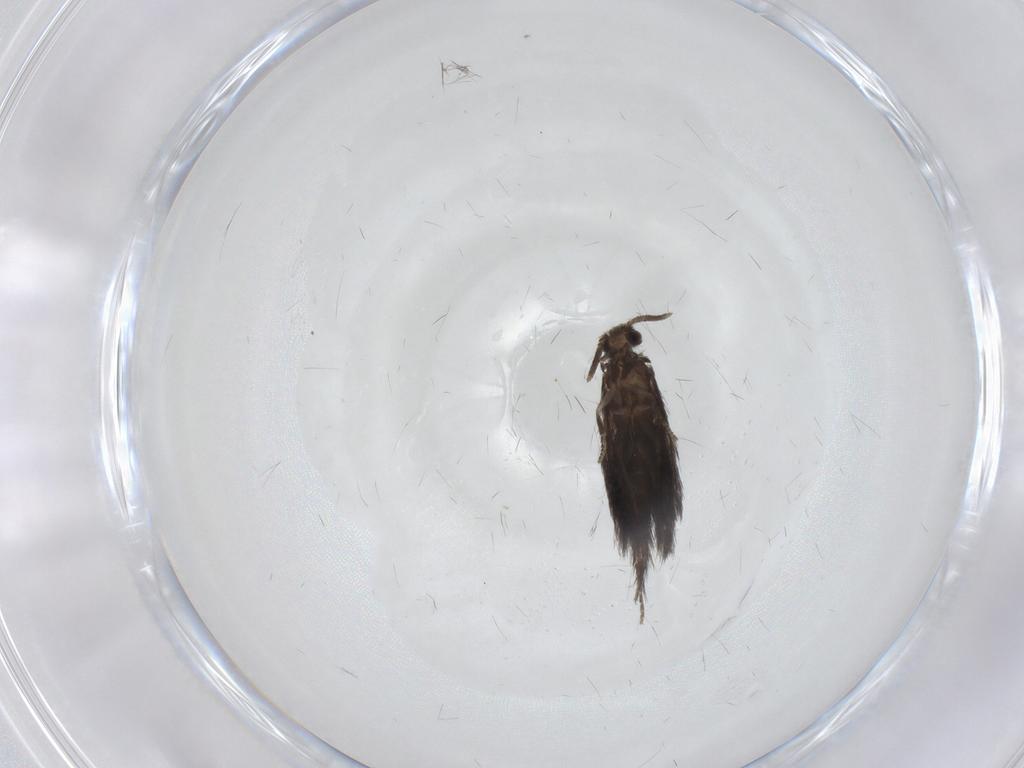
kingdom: Animalia
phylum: Arthropoda
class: Insecta
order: Trichoptera
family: Hydroptilidae
